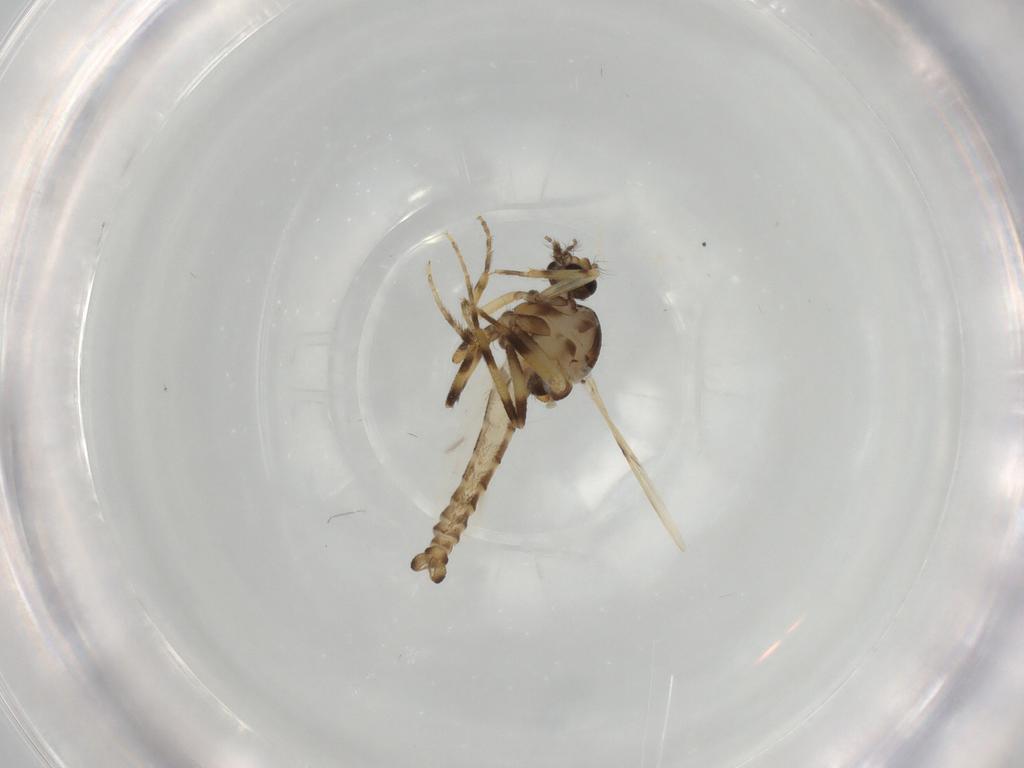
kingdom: Animalia
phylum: Arthropoda
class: Insecta
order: Diptera
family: Ceratopogonidae
